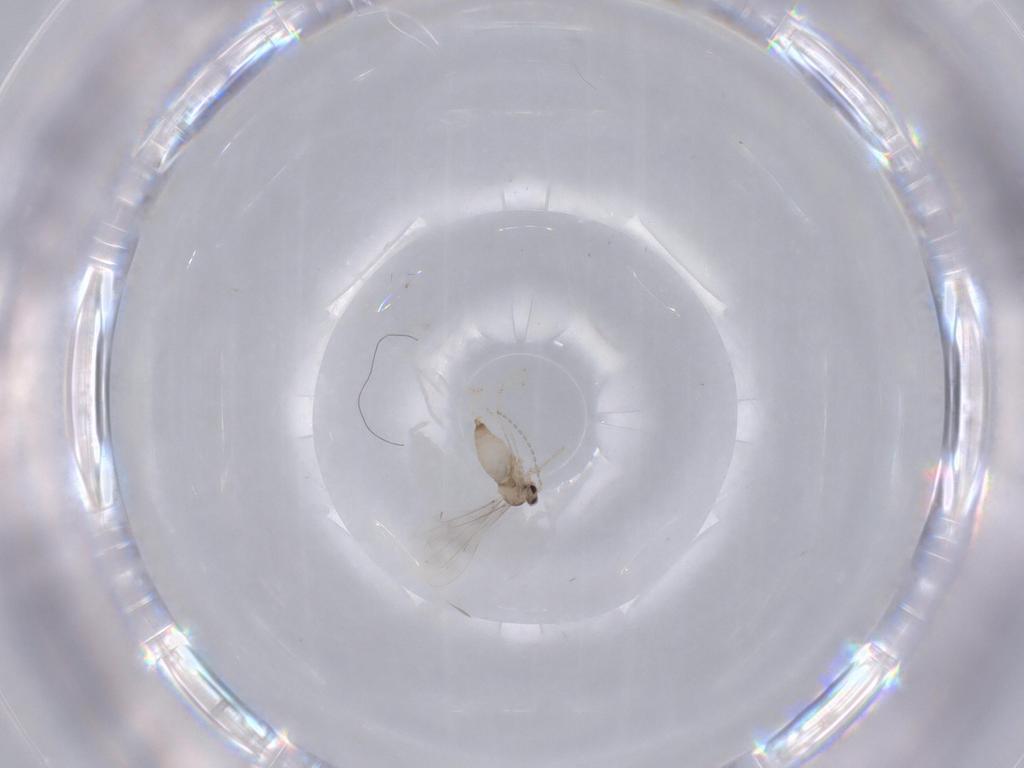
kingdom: Animalia
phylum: Arthropoda
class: Insecta
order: Diptera
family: Cecidomyiidae
